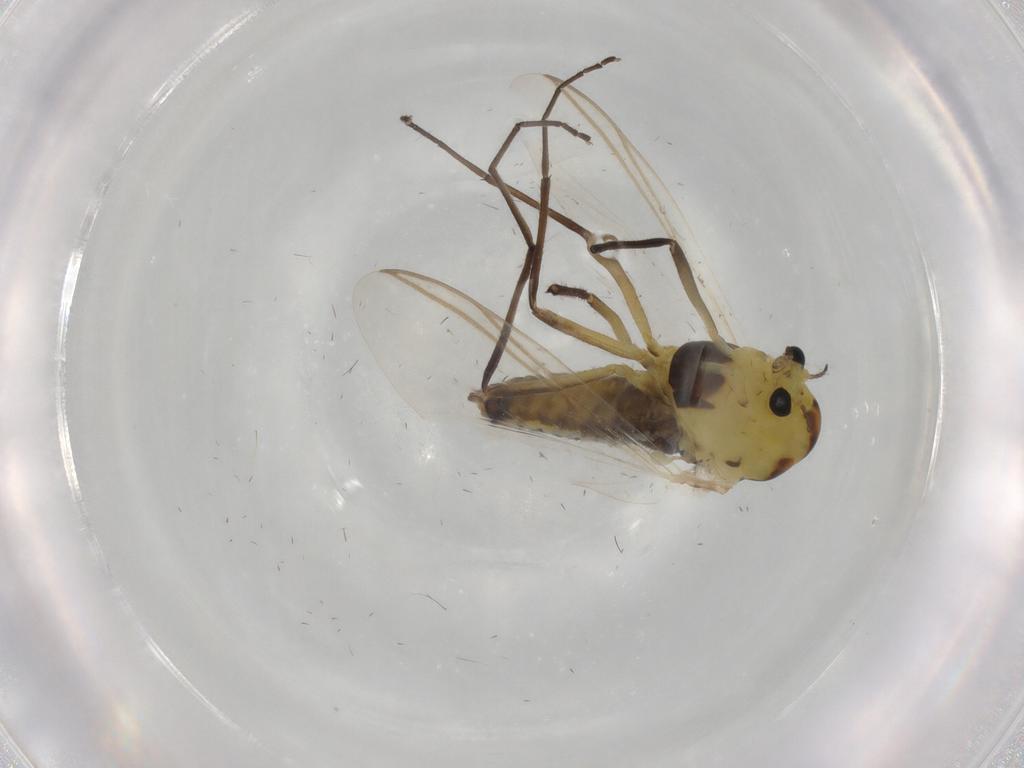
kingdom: Animalia
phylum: Arthropoda
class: Insecta
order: Diptera
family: Chironomidae
